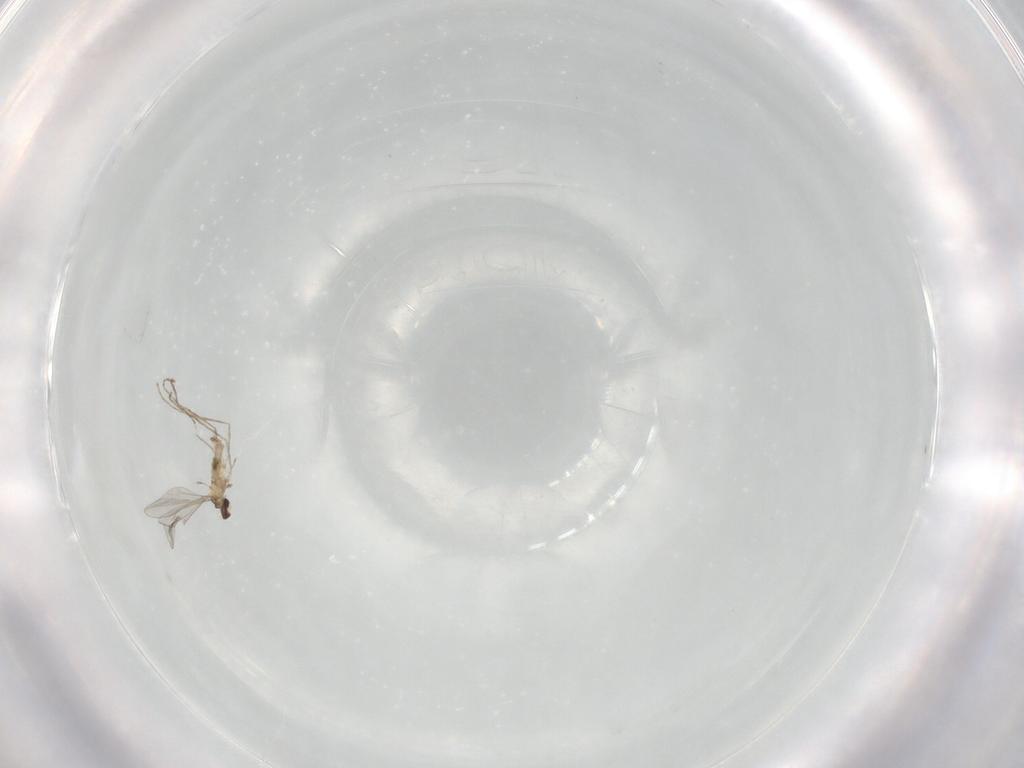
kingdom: Animalia
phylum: Arthropoda
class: Insecta
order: Diptera
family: Cecidomyiidae
